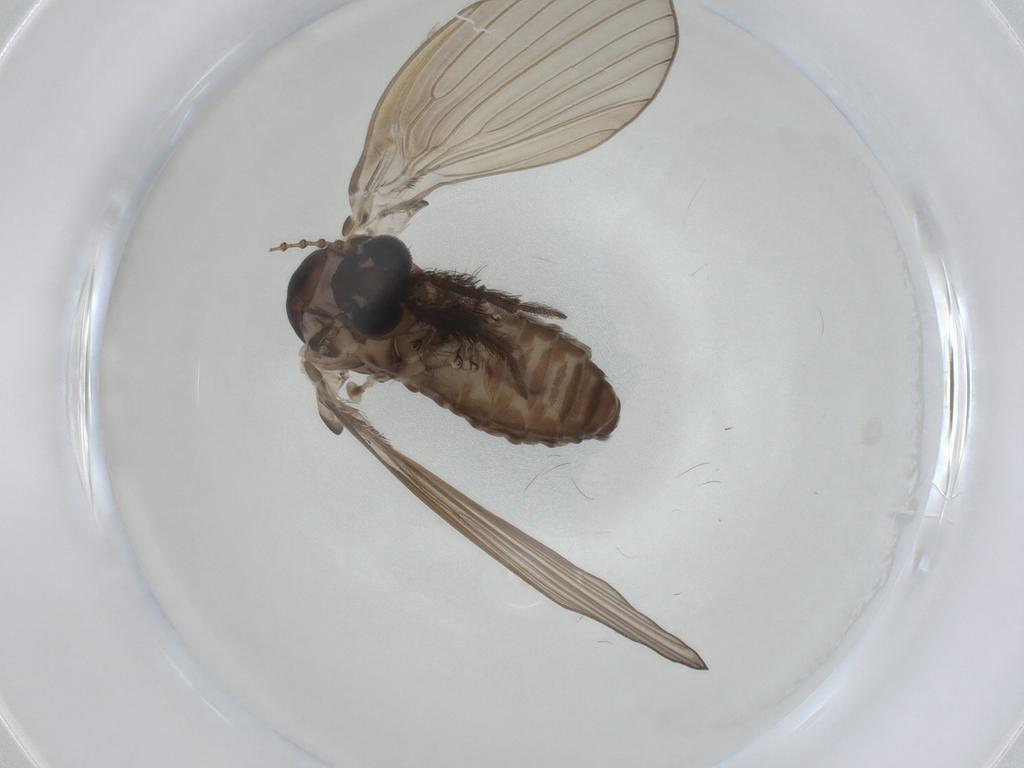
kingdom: Animalia
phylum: Arthropoda
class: Insecta
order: Diptera
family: Psychodidae
